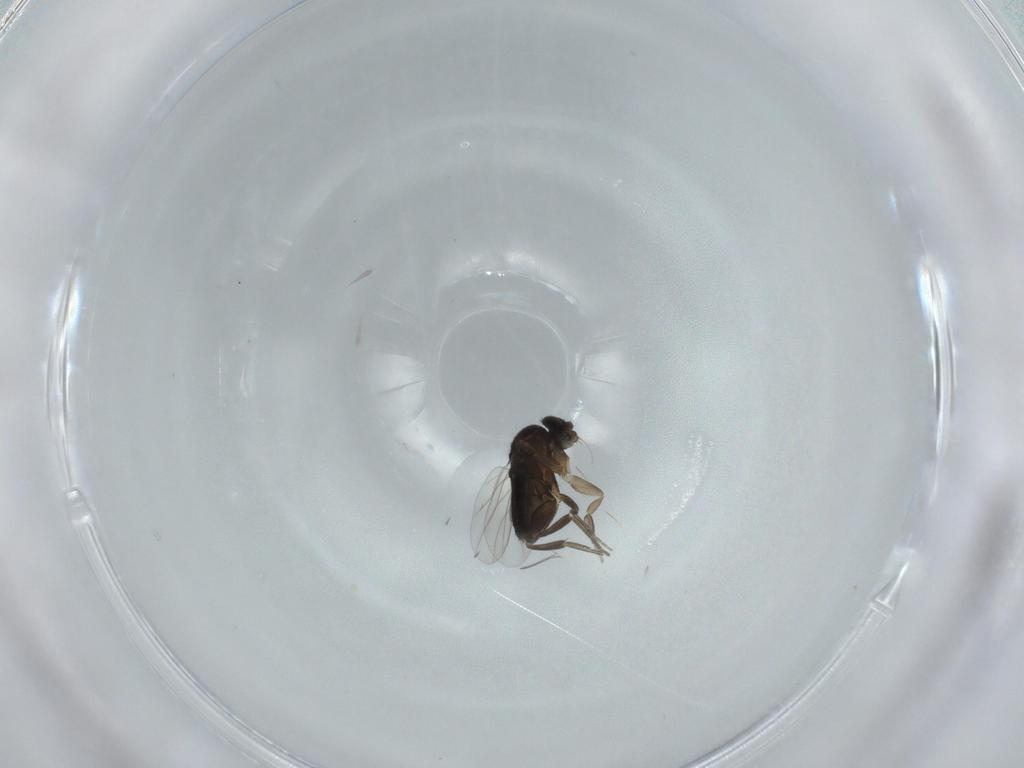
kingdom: Animalia
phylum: Arthropoda
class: Insecta
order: Diptera
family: Phoridae
